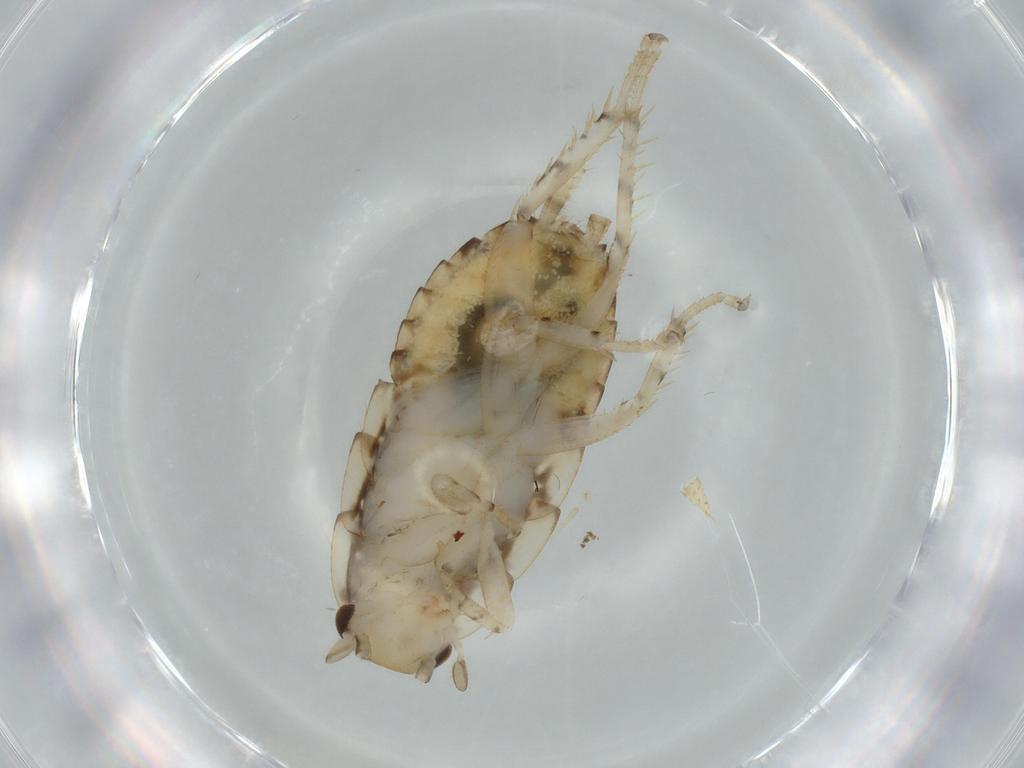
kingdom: Animalia
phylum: Arthropoda
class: Insecta
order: Blattodea
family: Ectobiidae
